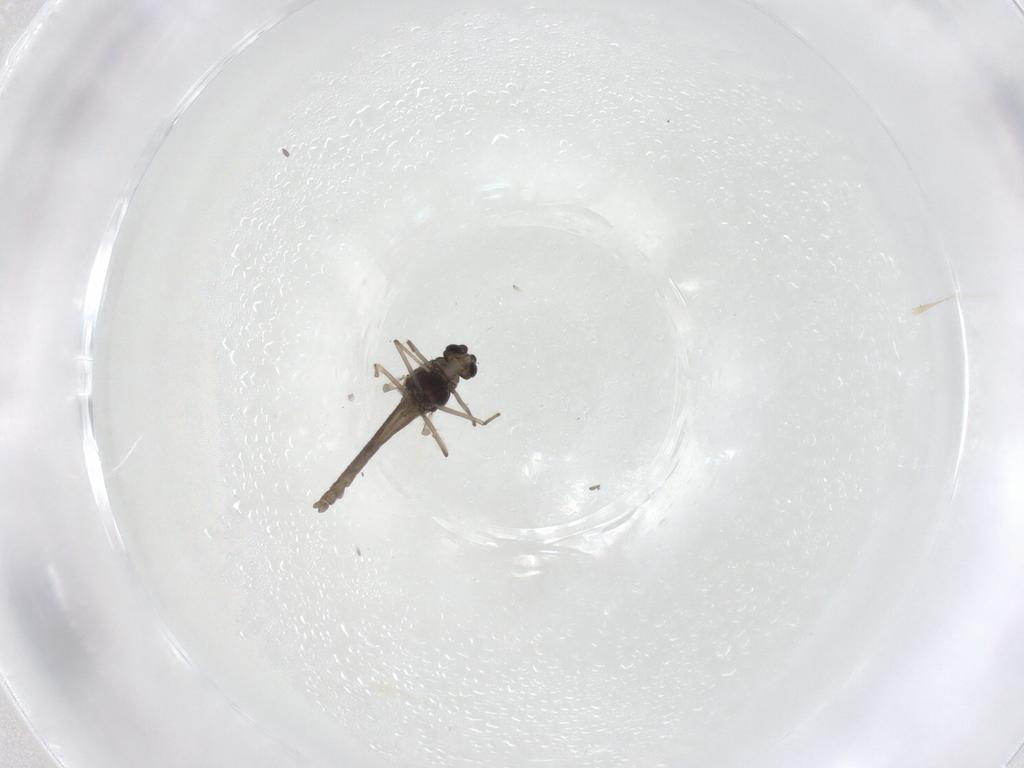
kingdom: Animalia
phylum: Arthropoda
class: Insecta
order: Diptera
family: Chironomidae
